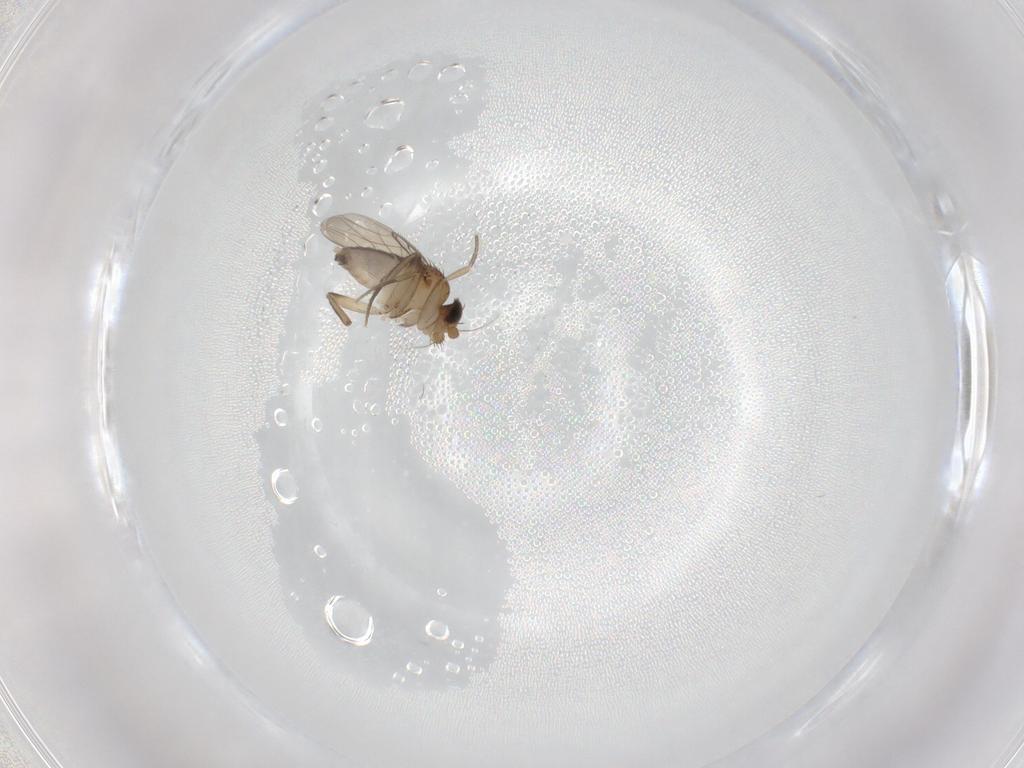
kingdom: Animalia
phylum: Arthropoda
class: Insecta
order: Diptera
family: Phoridae
